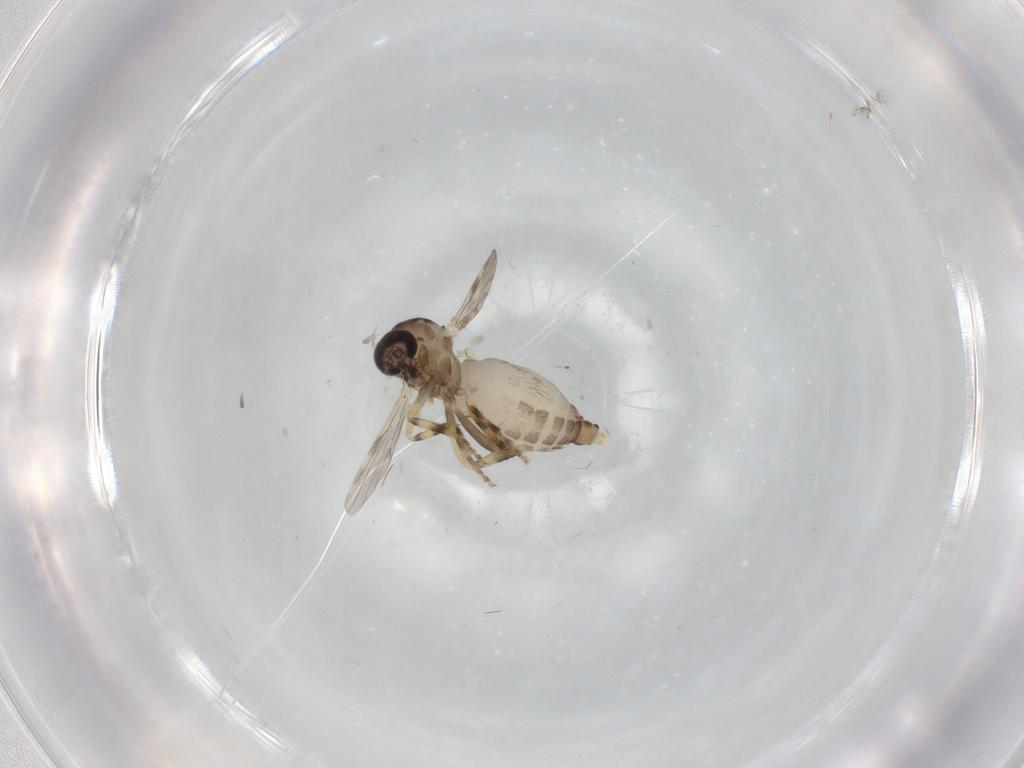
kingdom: Animalia
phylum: Arthropoda
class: Insecta
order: Diptera
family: Ceratopogonidae
